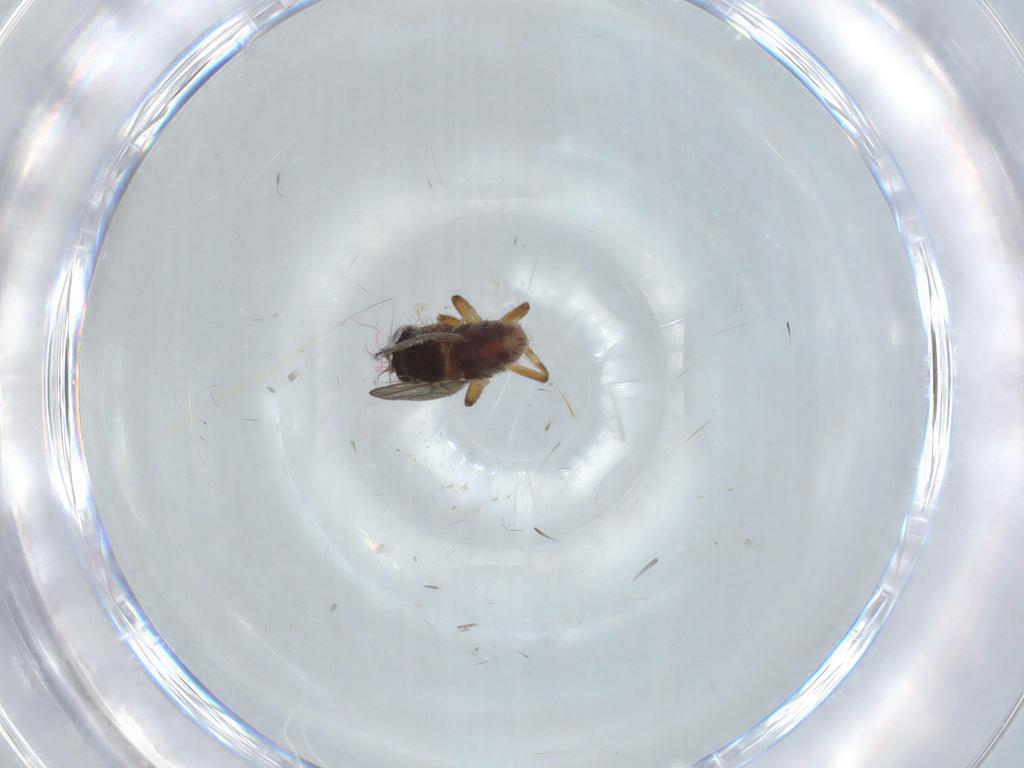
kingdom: Animalia
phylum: Arthropoda
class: Insecta
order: Diptera
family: Ephydridae
